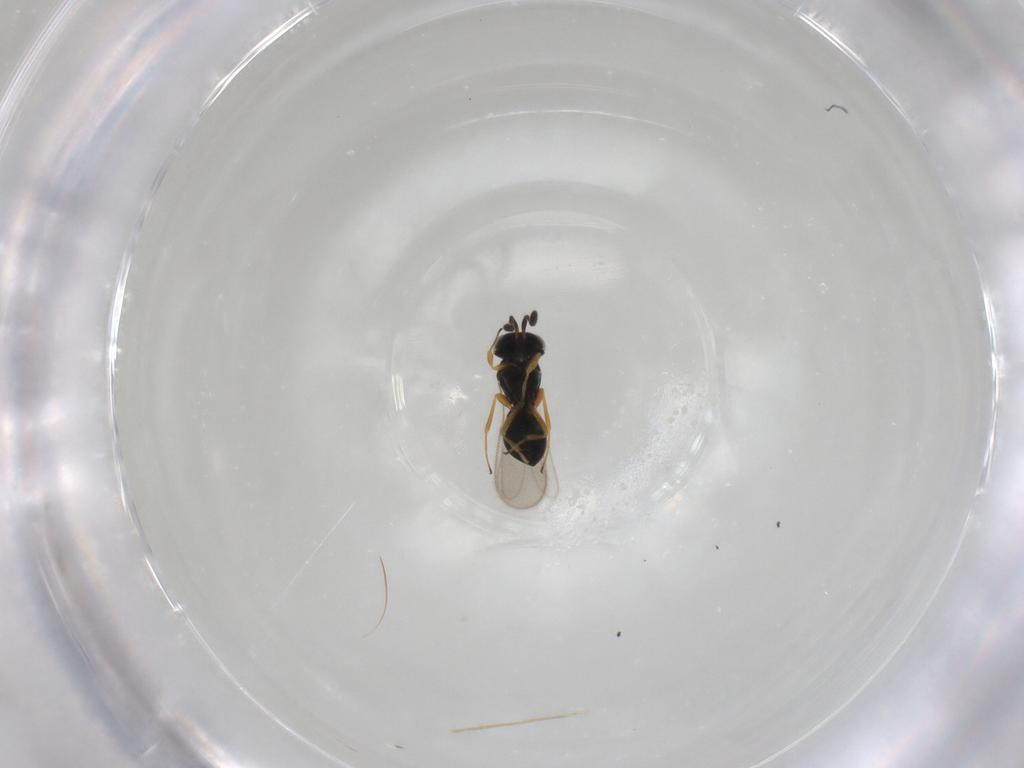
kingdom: Animalia
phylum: Arthropoda
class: Insecta
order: Hymenoptera
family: Scelionidae
